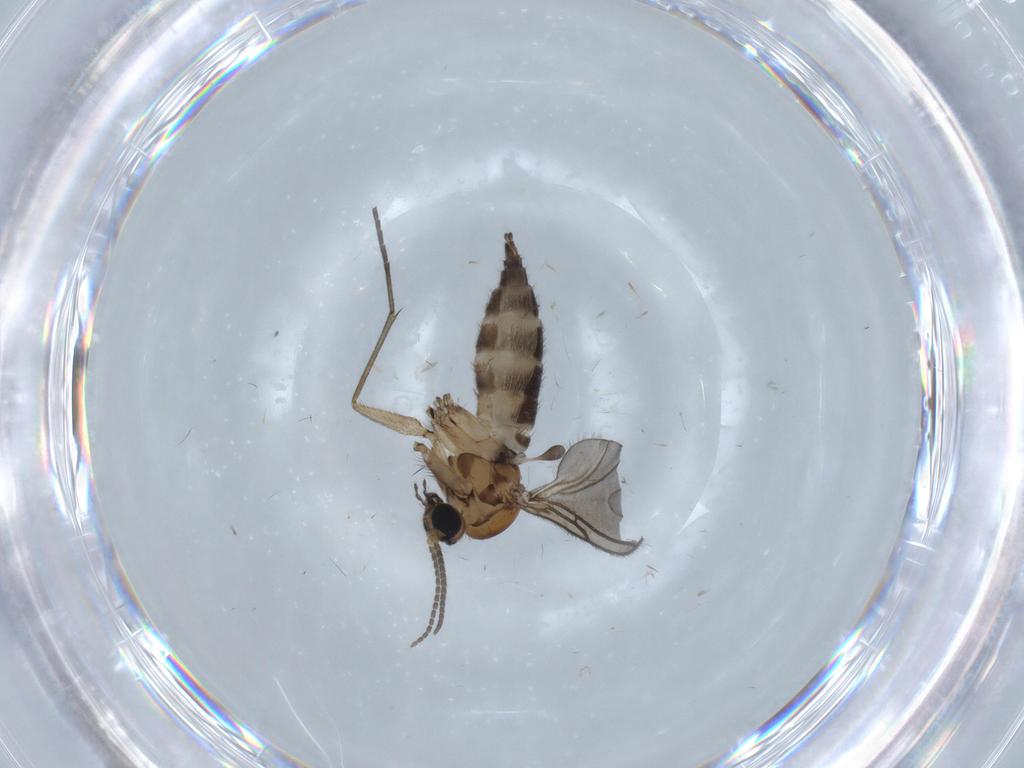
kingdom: Animalia
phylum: Arthropoda
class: Insecta
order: Diptera
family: Sciaridae
